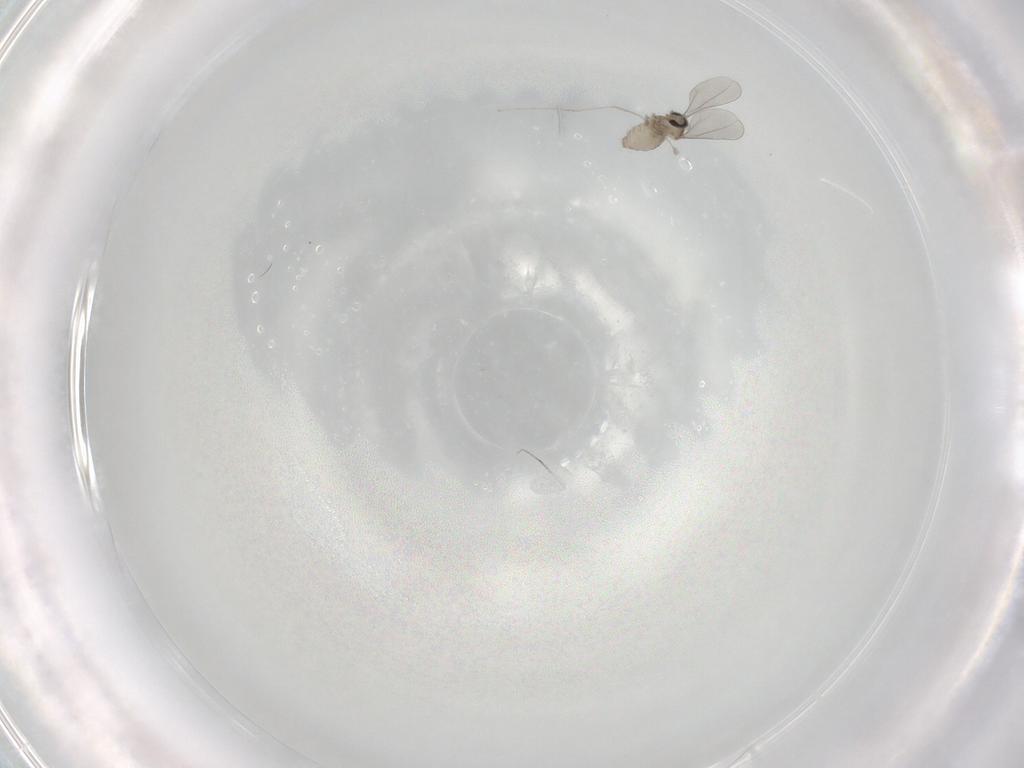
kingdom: Animalia
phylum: Arthropoda
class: Insecta
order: Diptera
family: Cecidomyiidae
